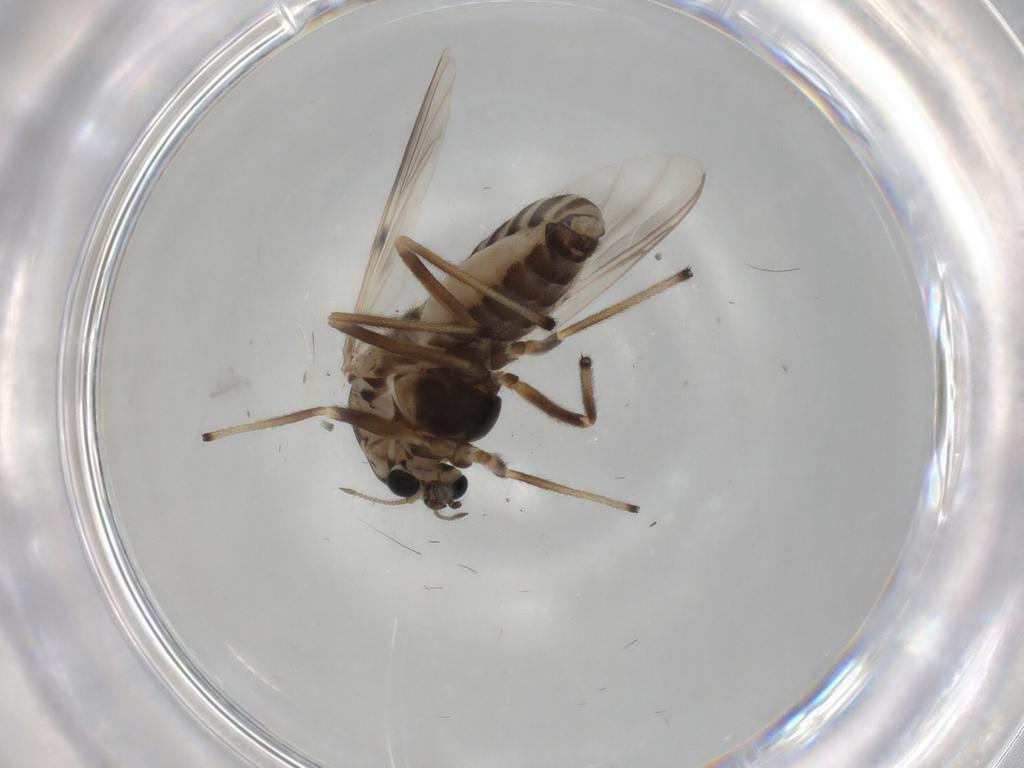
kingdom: Animalia
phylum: Arthropoda
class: Insecta
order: Diptera
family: Chironomidae
